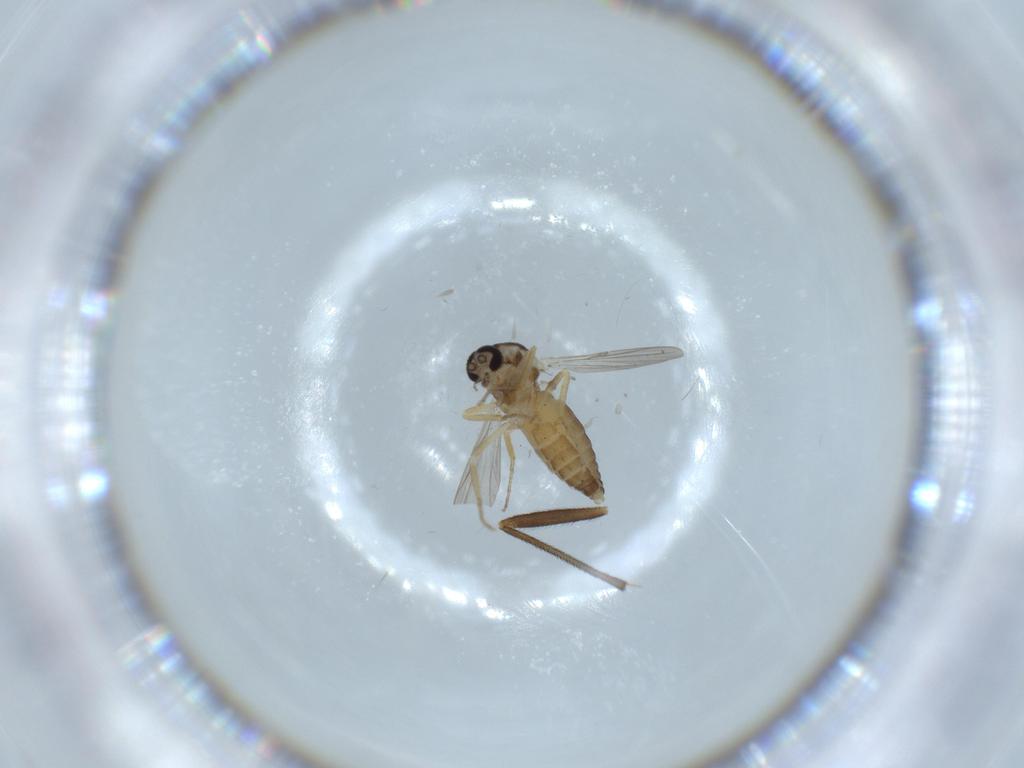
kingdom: Animalia
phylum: Arthropoda
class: Insecta
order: Diptera
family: Ceratopogonidae
